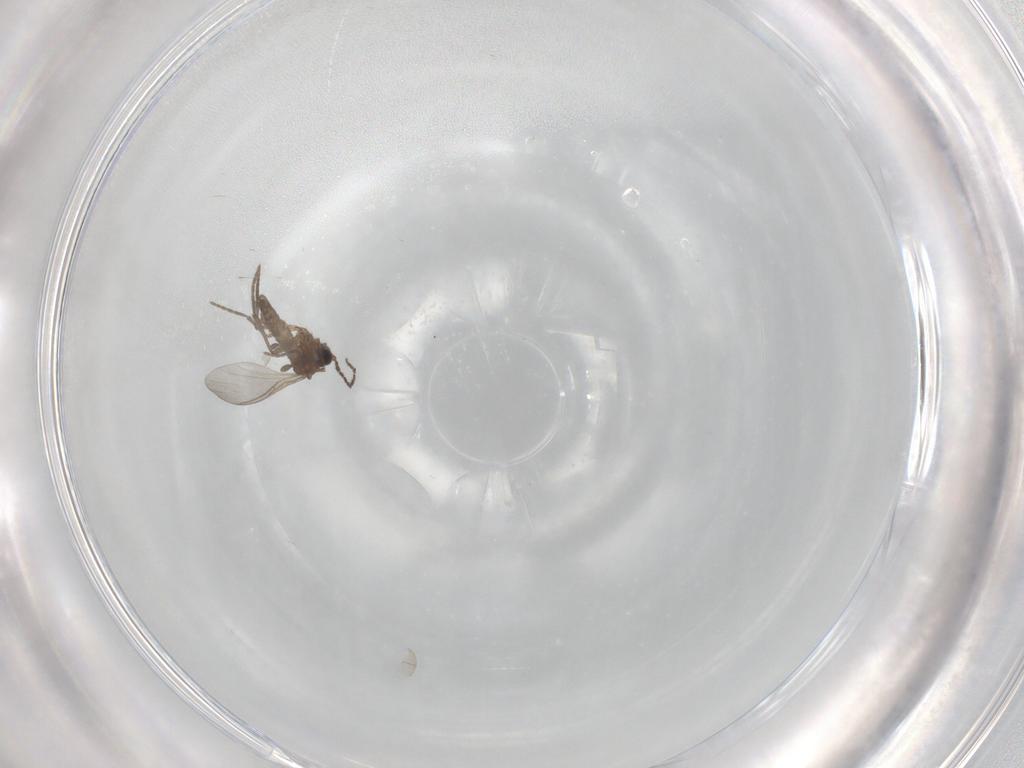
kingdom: Animalia
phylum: Arthropoda
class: Insecta
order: Diptera
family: Sciaridae
